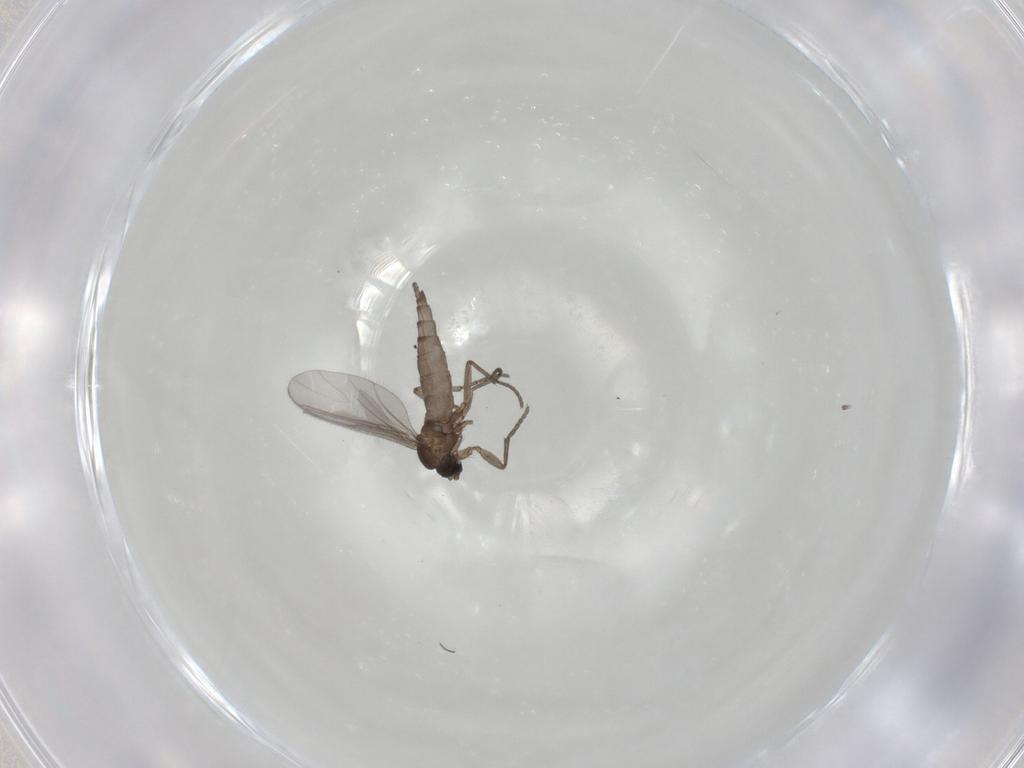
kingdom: Animalia
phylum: Arthropoda
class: Insecta
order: Diptera
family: Sciaridae
